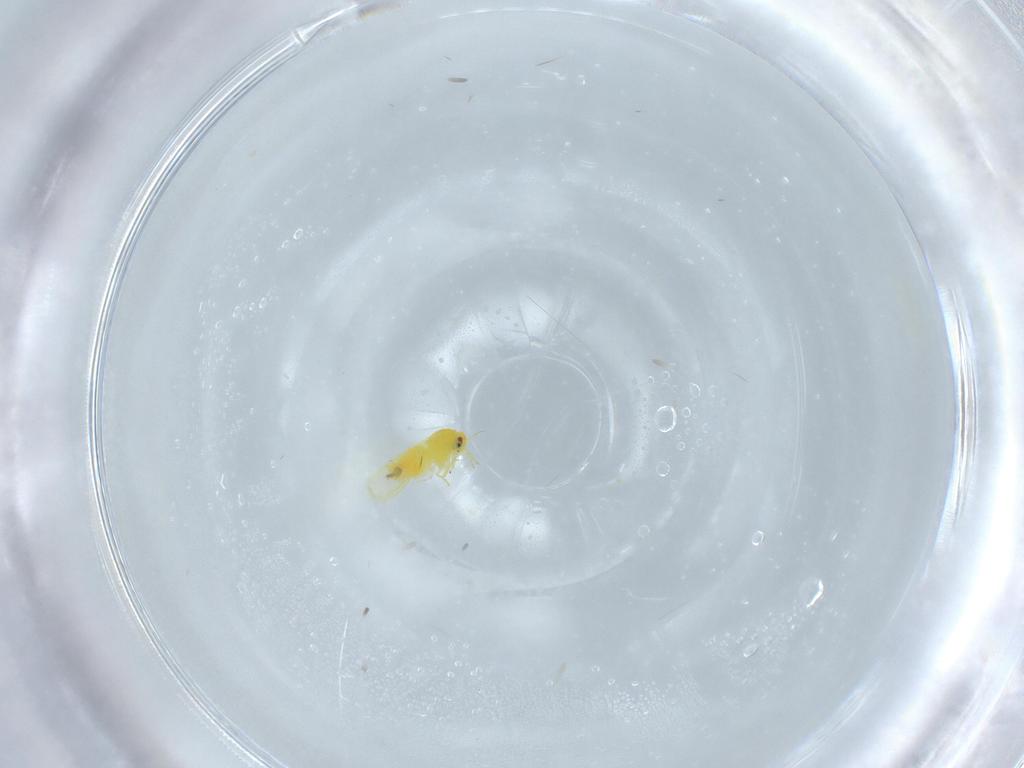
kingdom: Animalia
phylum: Arthropoda
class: Insecta
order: Hemiptera
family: Aleyrodidae
